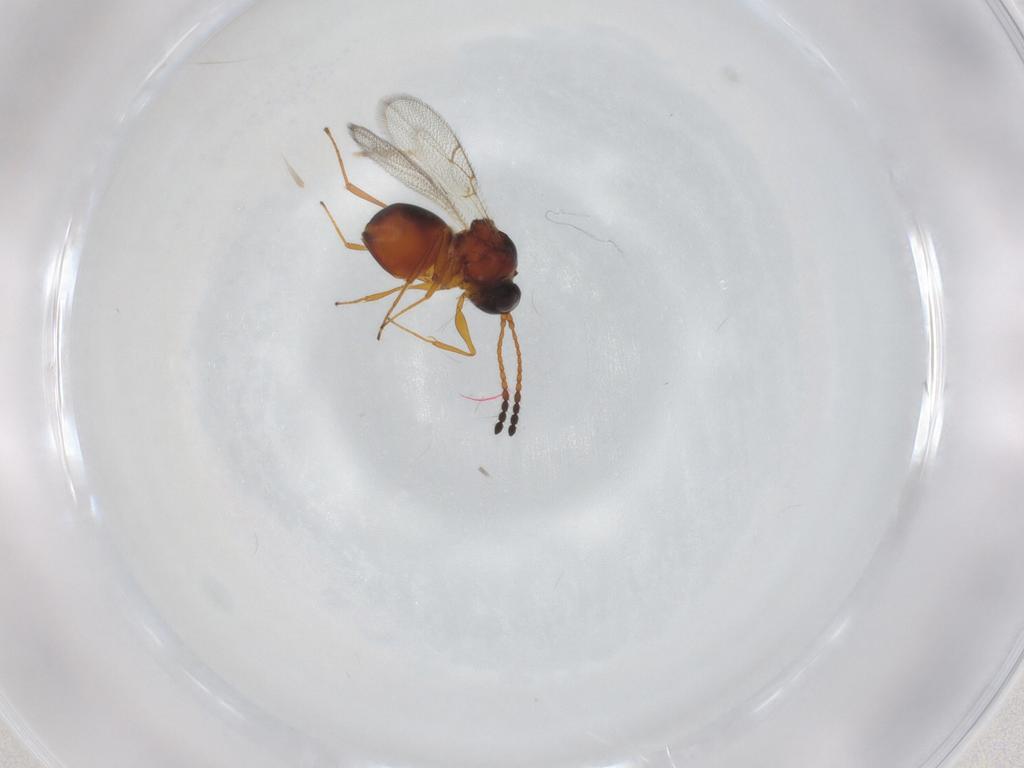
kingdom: Animalia
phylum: Arthropoda
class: Insecta
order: Hymenoptera
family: Figitidae
